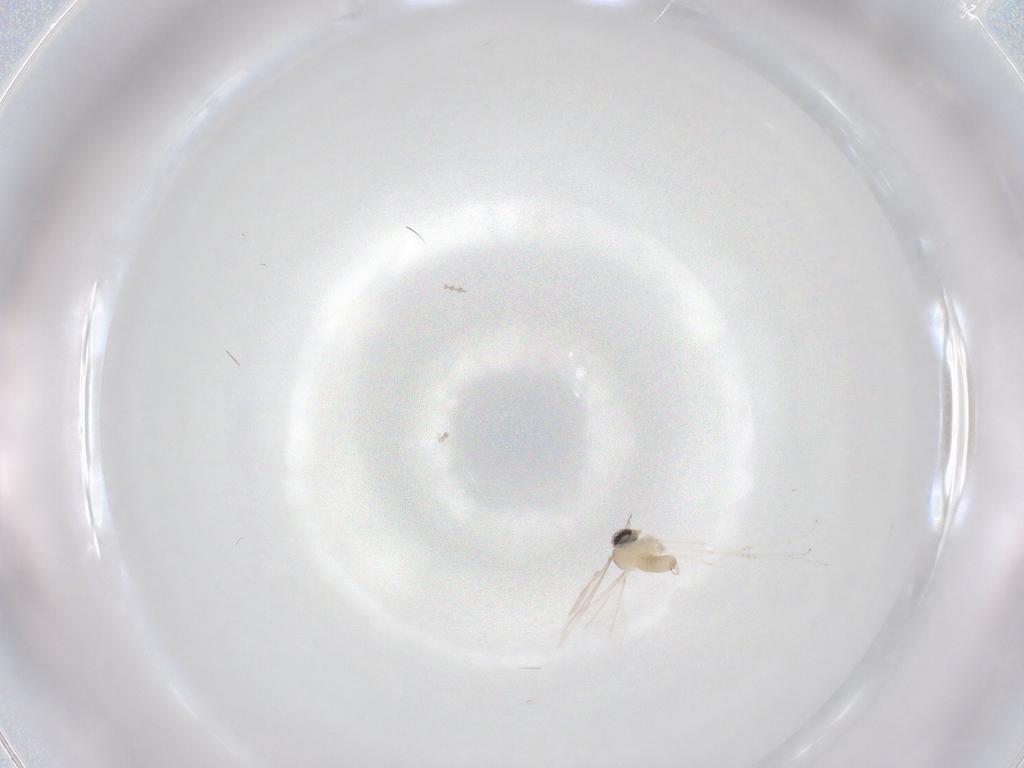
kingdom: Animalia
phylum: Arthropoda
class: Insecta
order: Diptera
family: Cecidomyiidae
